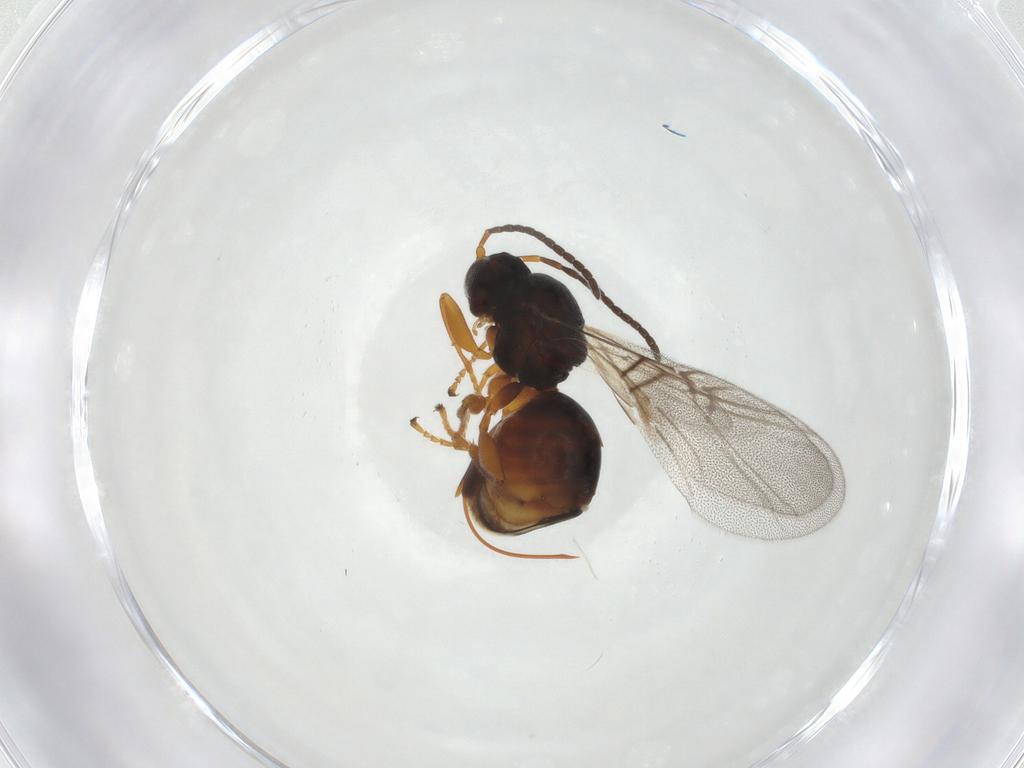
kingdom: Animalia
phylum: Arthropoda
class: Insecta
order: Hymenoptera
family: Cynipidae
